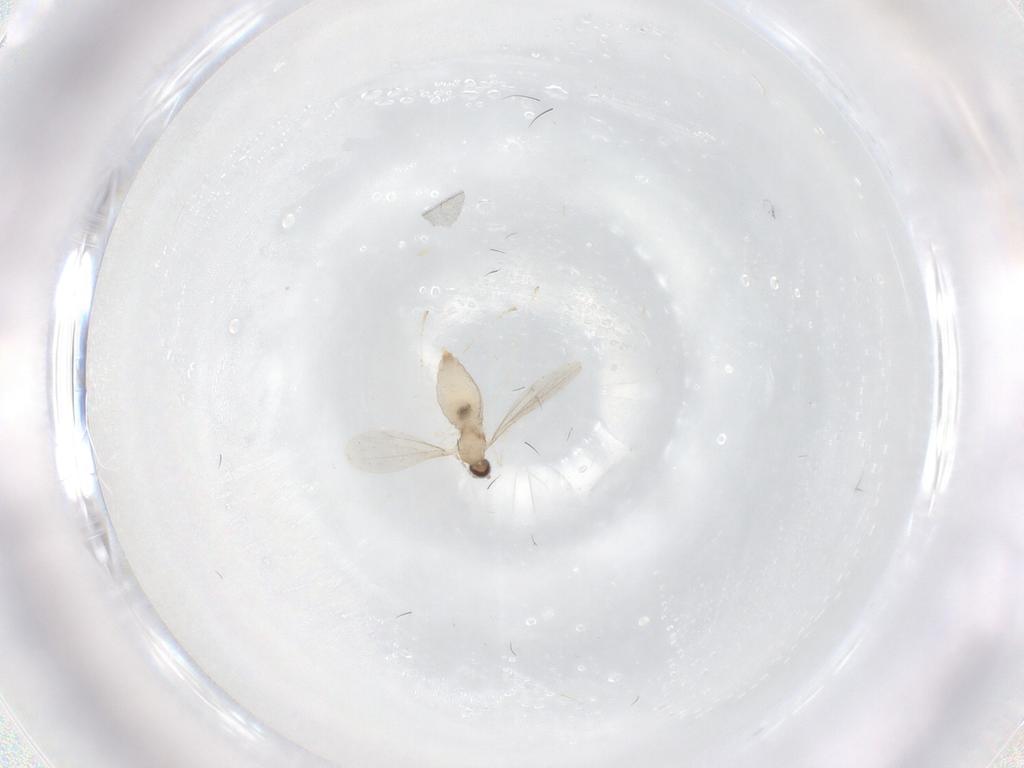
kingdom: Animalia
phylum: Arthropoda
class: Insecta
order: Diptera
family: Cecidomyiidae
